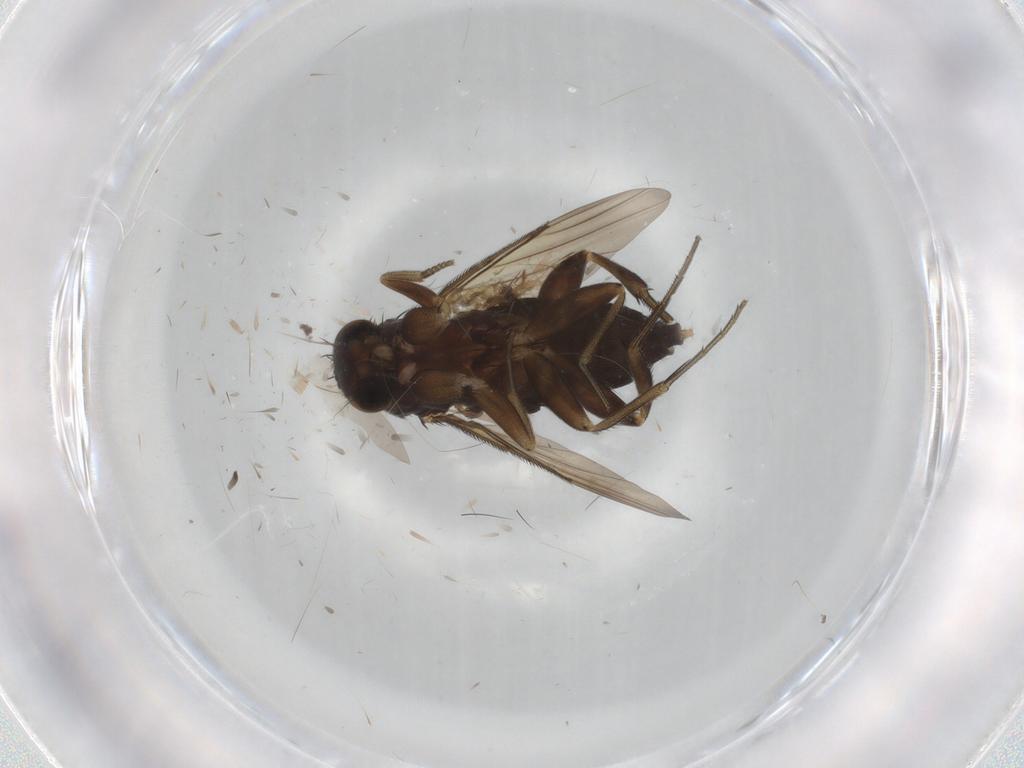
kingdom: Animalia
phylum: Arthropoda
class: Insecta
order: Diptera
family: Phoridae
